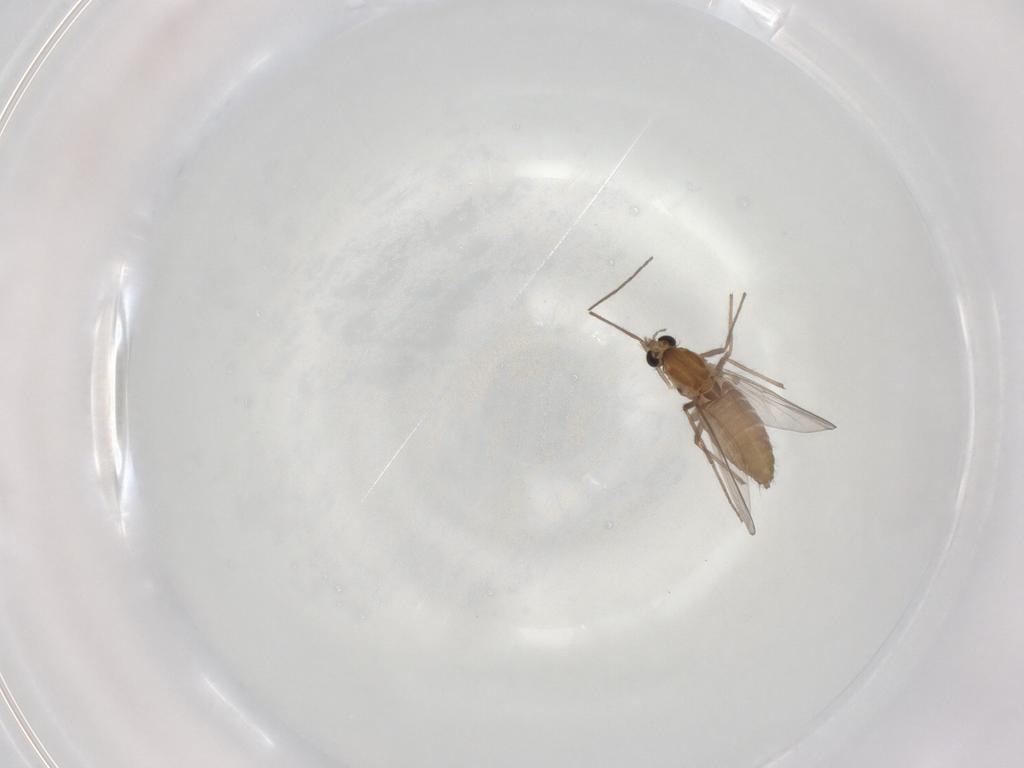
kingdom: Animalia
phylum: Arthropoda
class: Insecta
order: Diptera
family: Chironomidae
